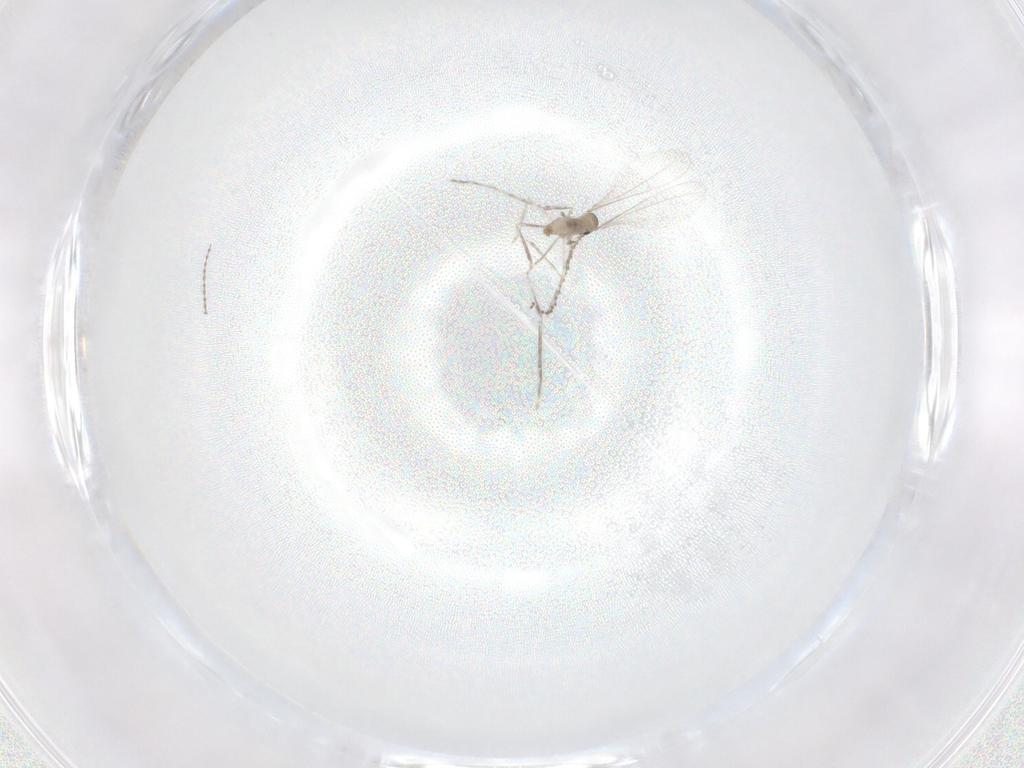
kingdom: Animalia
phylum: Arthropoda
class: Insecta
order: Diptera
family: Cecidomyiidae
